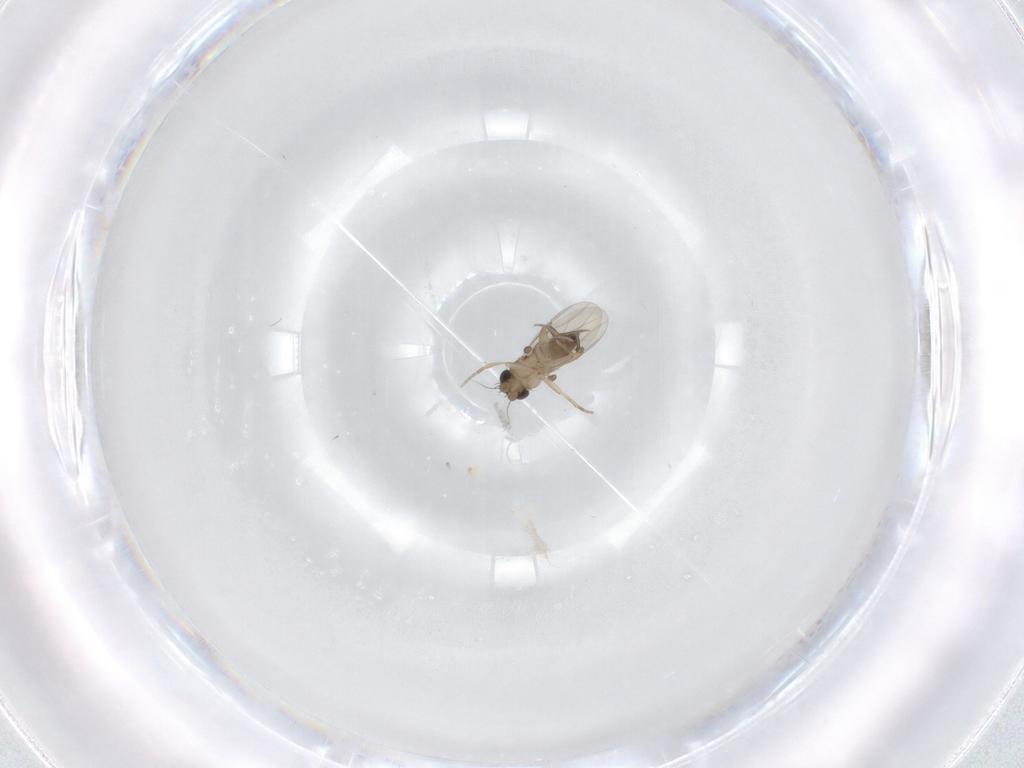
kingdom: Animalia
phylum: Arthropoda
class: Insecta
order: Diptera
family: Phoridae
